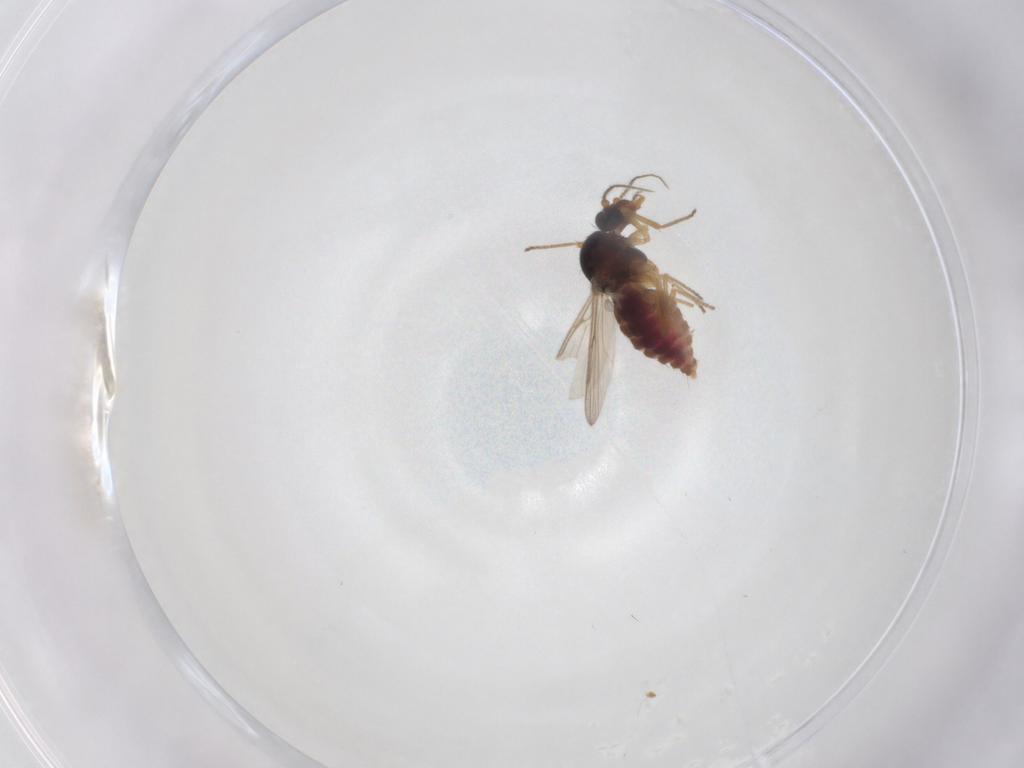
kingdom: Animalia
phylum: Arthropoda
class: Insecta
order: Diptera
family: Ceratopogonidae
